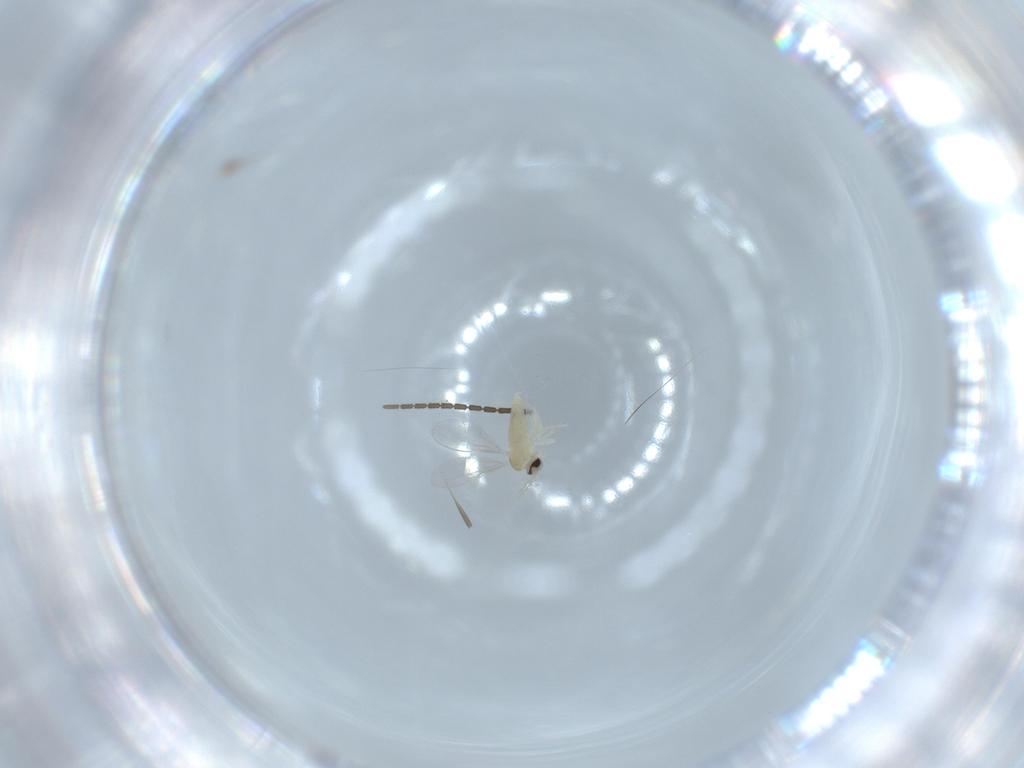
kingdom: Animalia
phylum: Arthropoda
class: Insecta
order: Diptera
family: Cecidomyiidae
